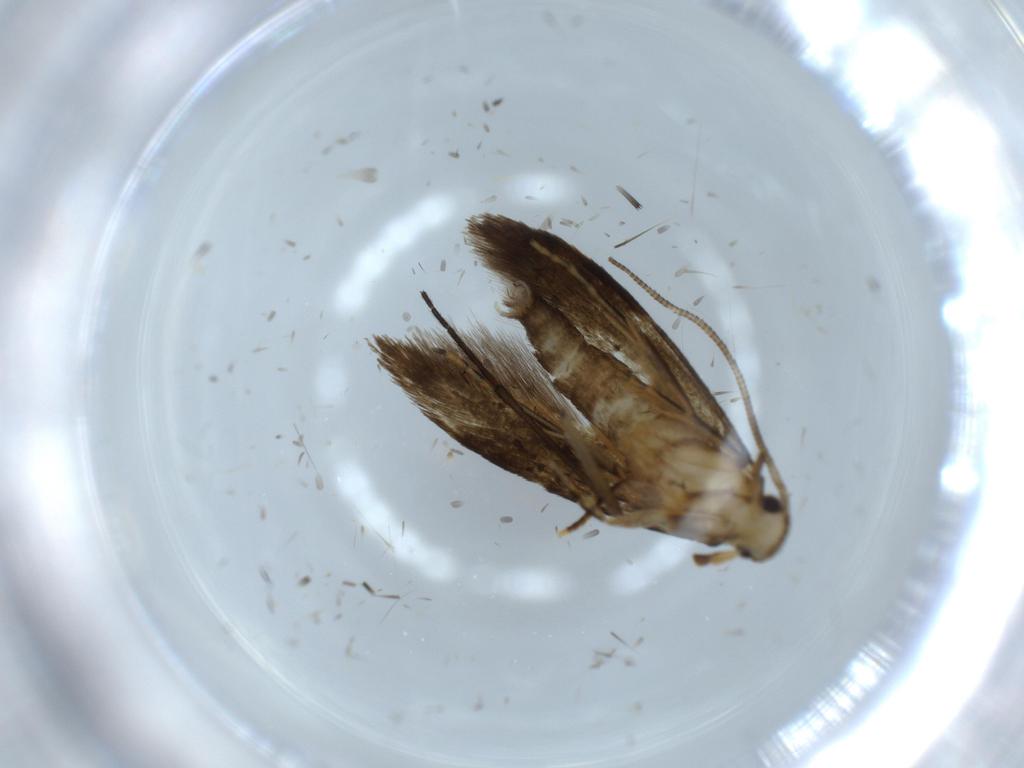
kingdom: Animalia
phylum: Arthropoda
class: Insecta
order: Lepidoptera
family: Tineidae
